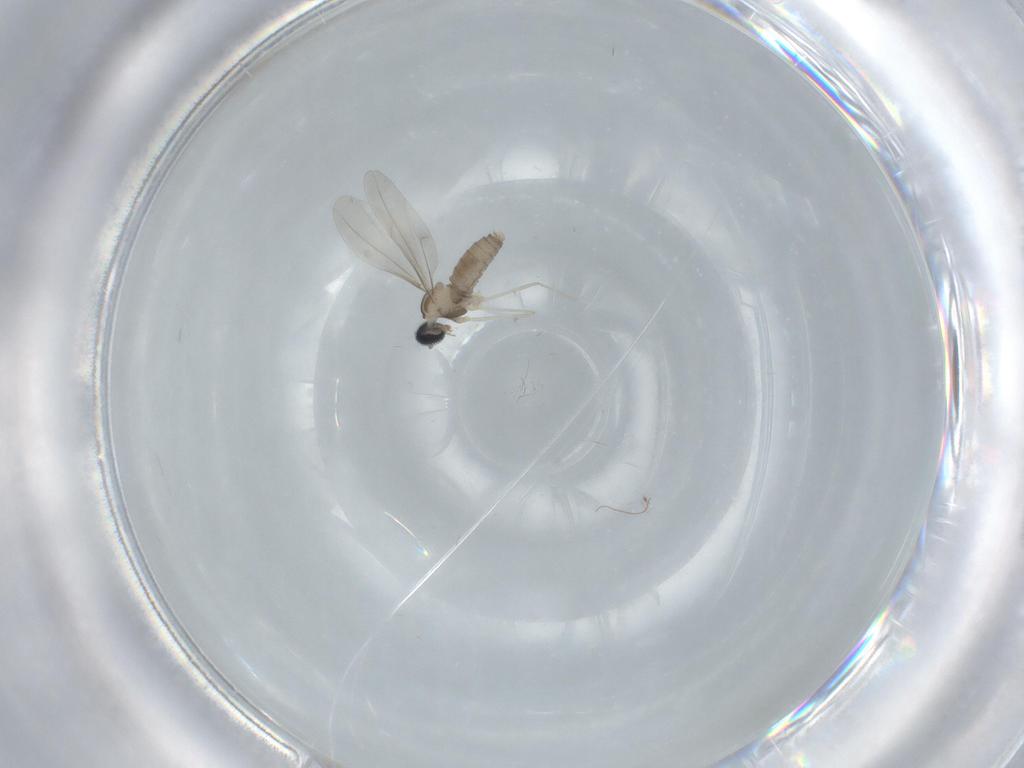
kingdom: Animalia
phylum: Arthropoda
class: Insecta
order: Diptera
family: Cecidomyiidae
